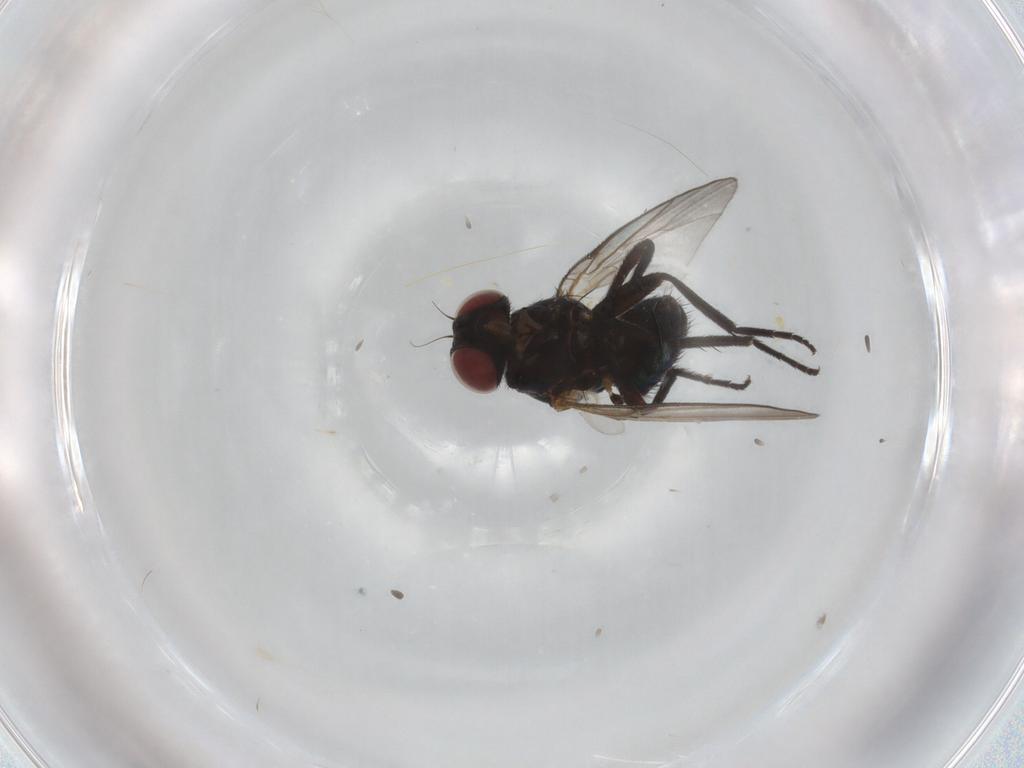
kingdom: Animalia
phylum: Arthropoda
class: Insecta
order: Diptera
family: Agromyzidae
